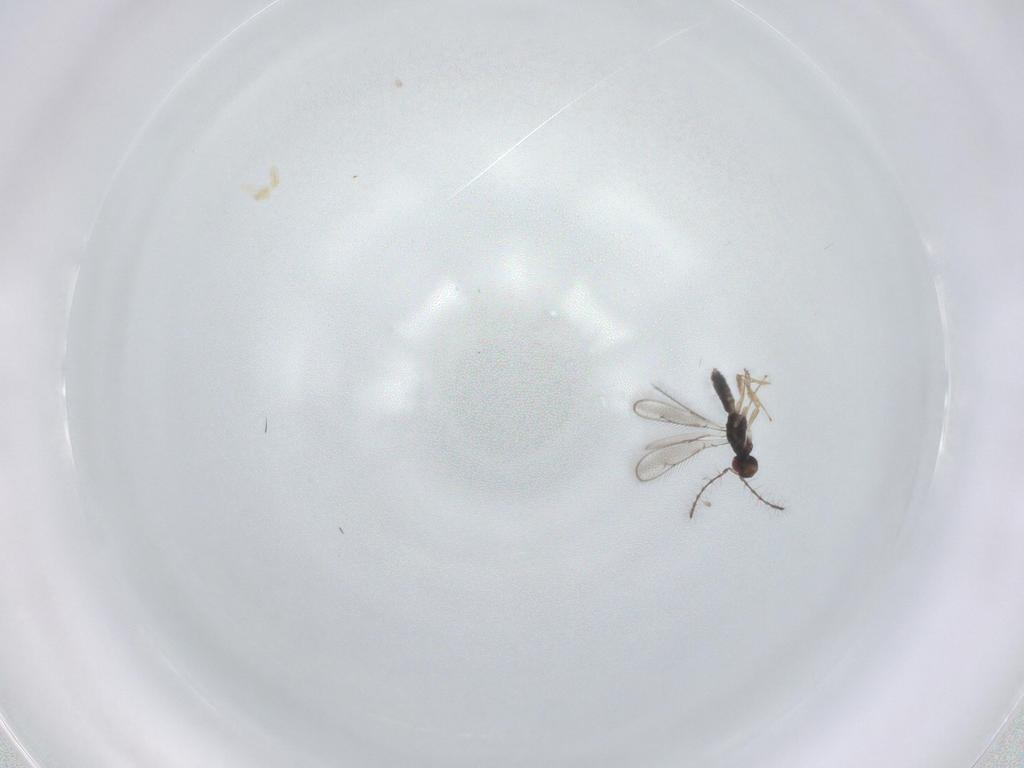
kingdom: Animalia
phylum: Arthropoda
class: Insecta
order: Hymenoptera
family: Pteromalidae
